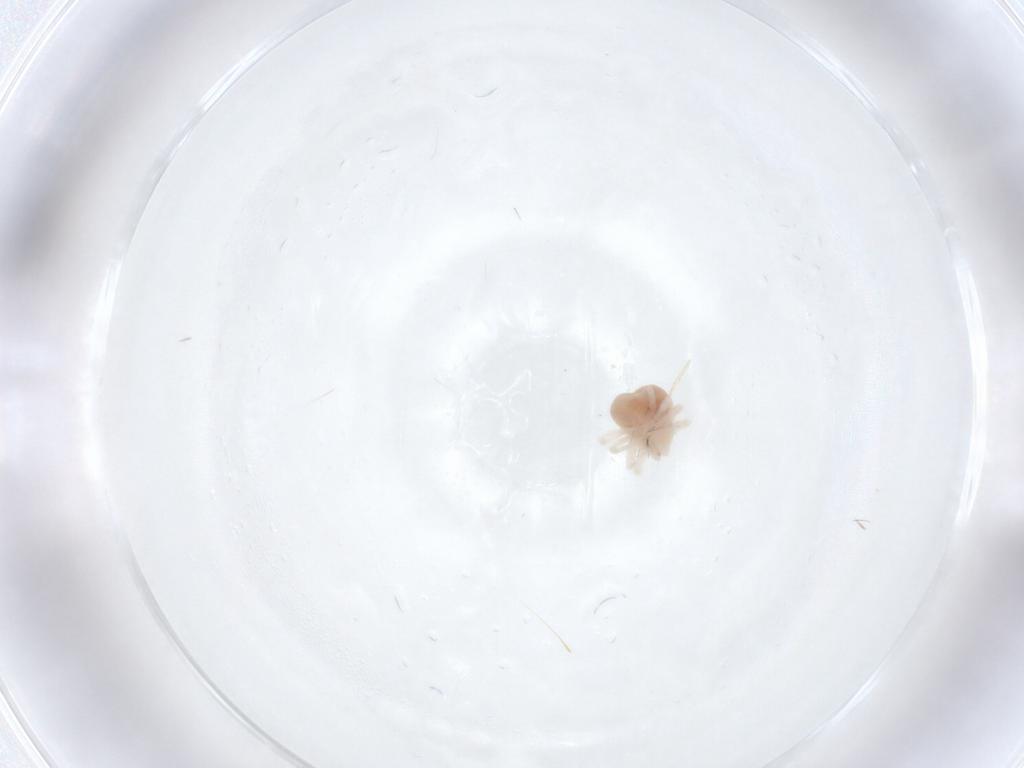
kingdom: Animalia
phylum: Arthropoda
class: Arachnida
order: Trombidiformes
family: Anystidae
